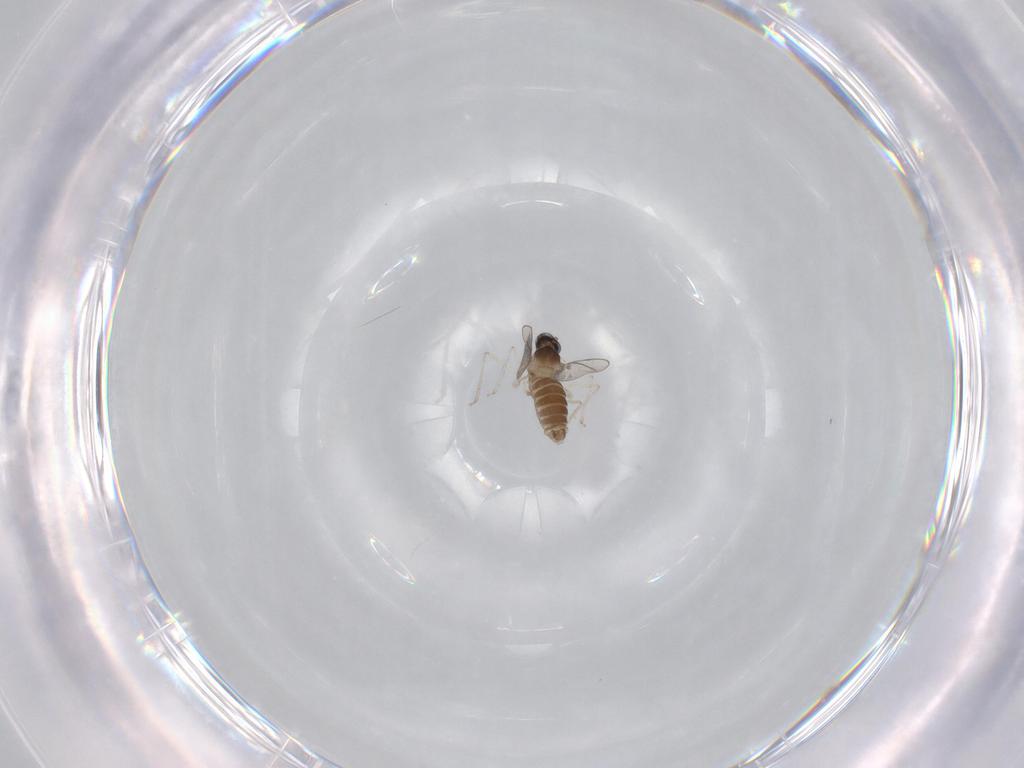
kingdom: Animalia
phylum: Arthropoda
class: Insecta
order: Diptera
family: Cecidomyiidae
